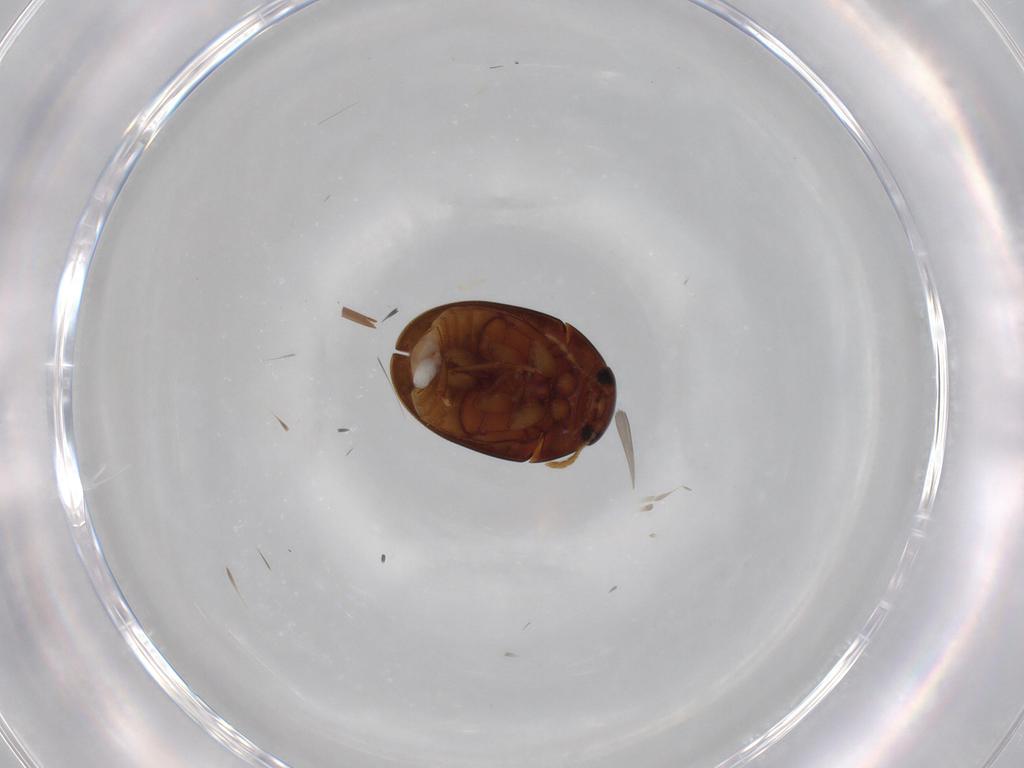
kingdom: Animalia
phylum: Arthropoda
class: Insecta
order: Coleoptera
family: Phalacridae
